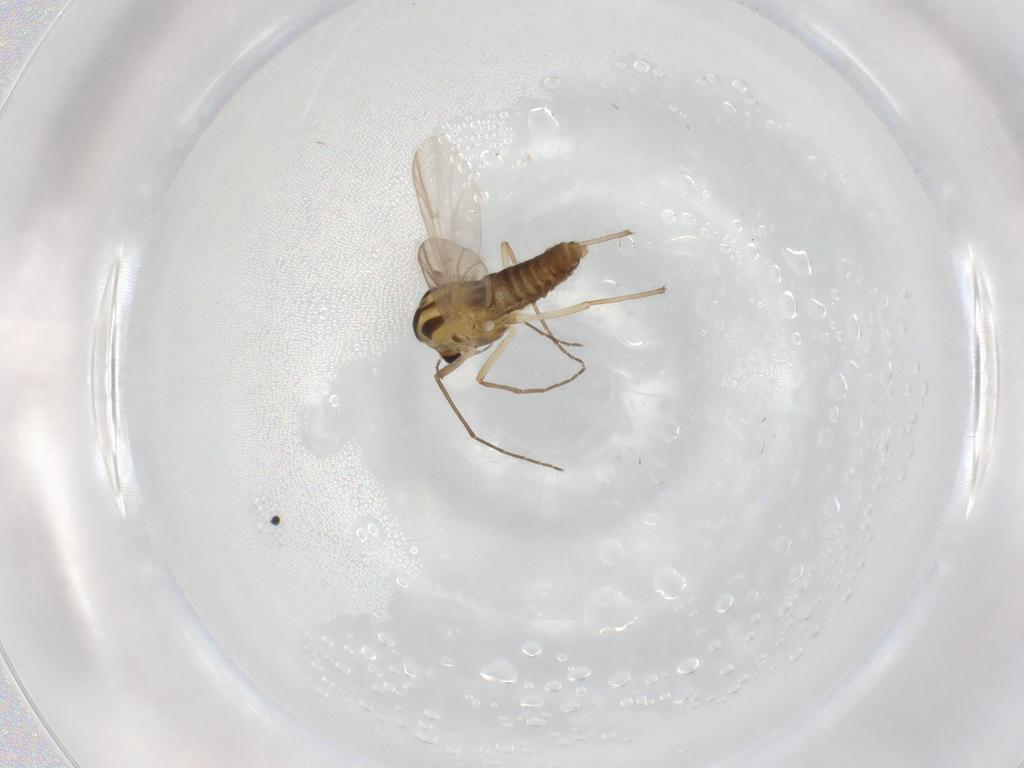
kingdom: Animalia
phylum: Arthropoda
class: Insecta
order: Diptera
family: Chironomidae
